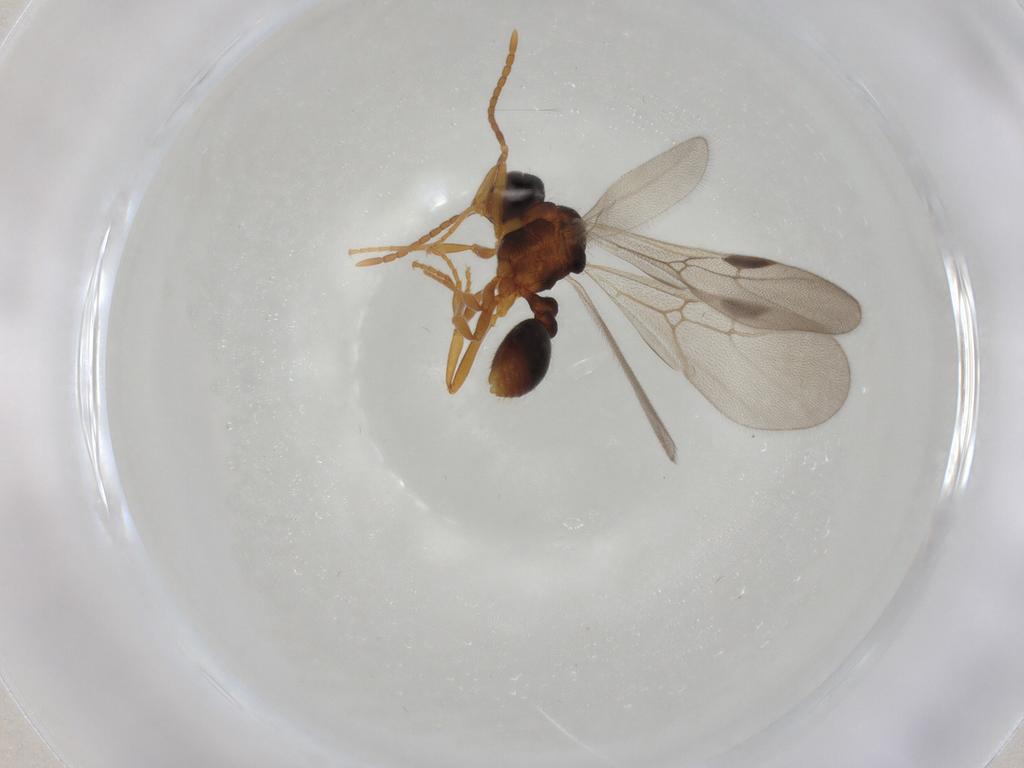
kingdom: Animalia
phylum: Arthropoda
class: Insecta
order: Hymenoptera
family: Formicidae
